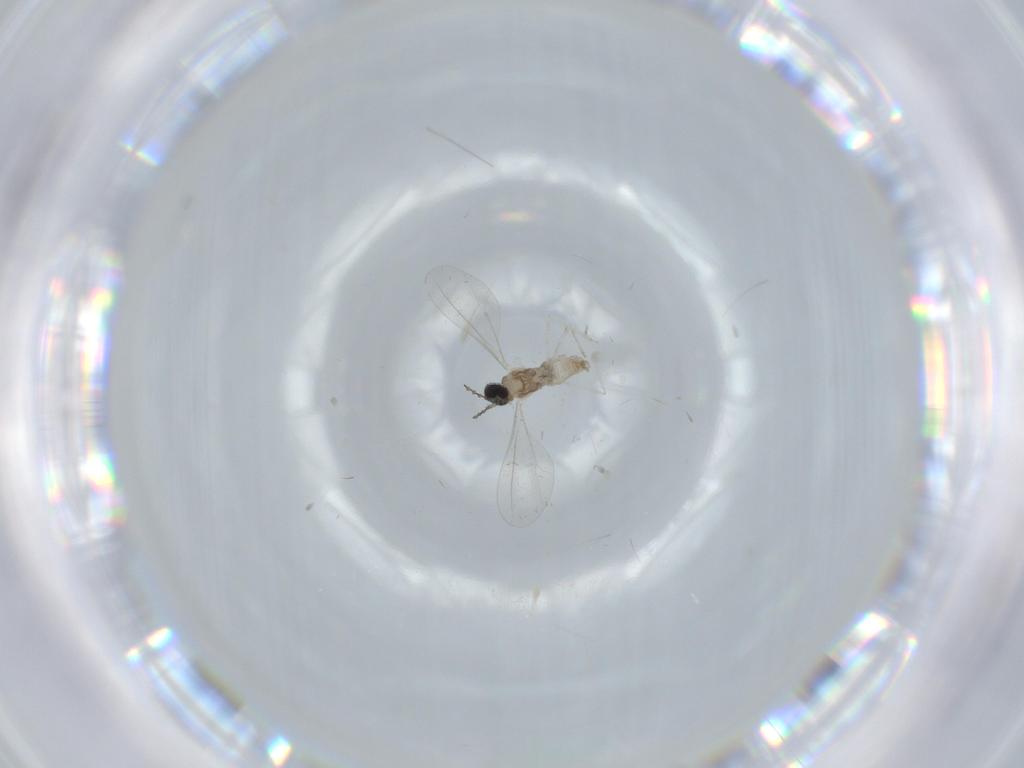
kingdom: Animalia
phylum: Arthropoda
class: Insecta
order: Diptera
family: Cecidomyiidae
